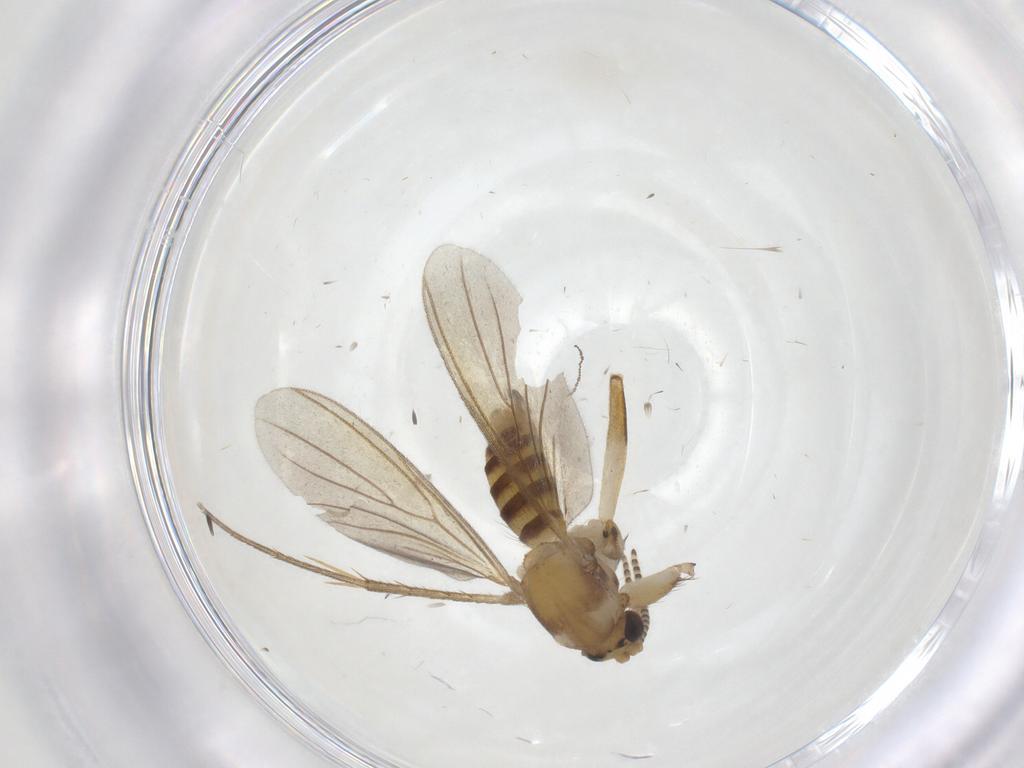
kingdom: Animalia
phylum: Arthropoda
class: Insecta
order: Diptera
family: Mycetophilidae
